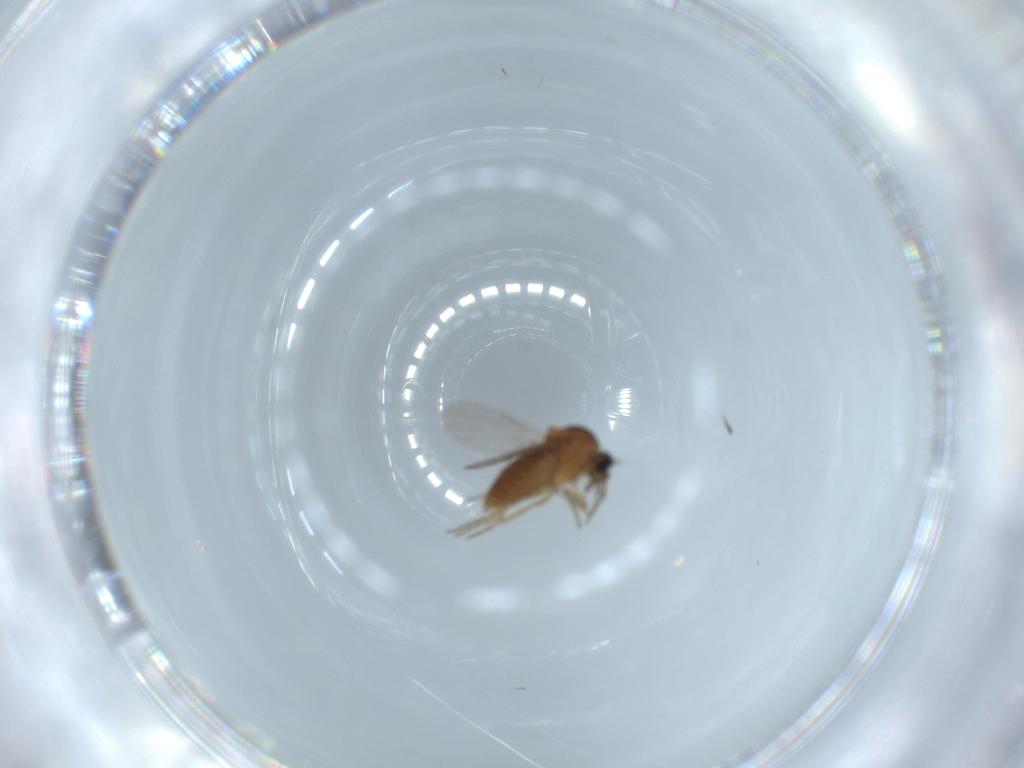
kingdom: Animalia
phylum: Arthropoda
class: Insecta
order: Diptera
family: Ceratopogonidae
